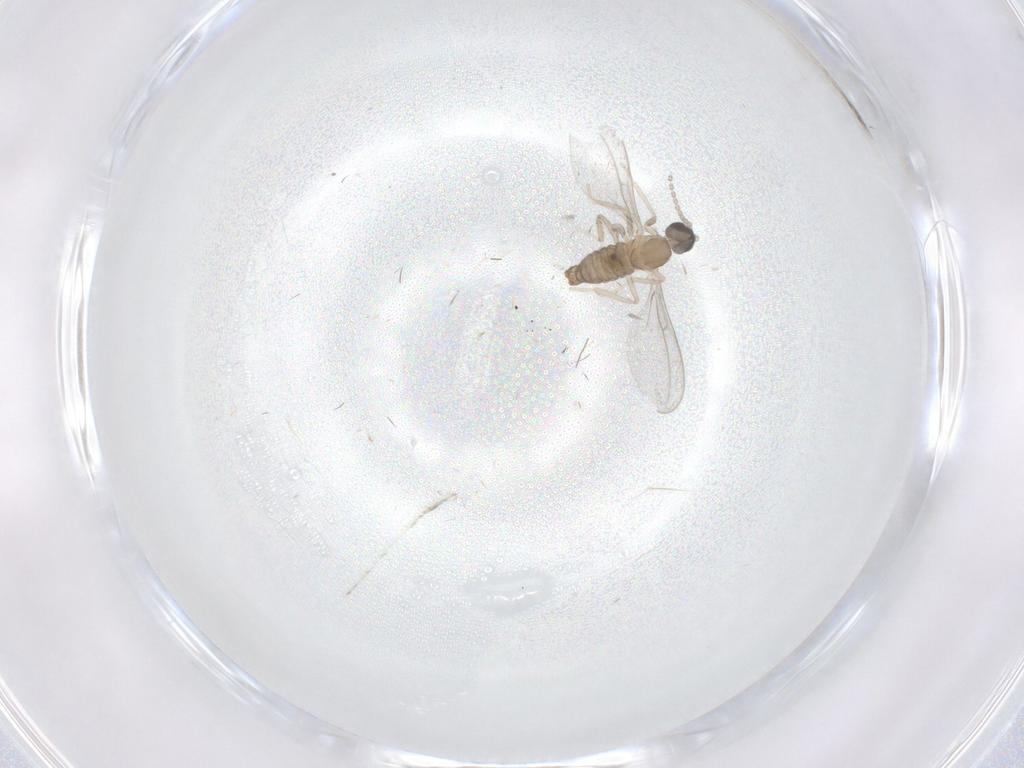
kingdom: Animalia
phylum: Arthropoda
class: Insecta
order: Diptera
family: Cecidomyiidae
